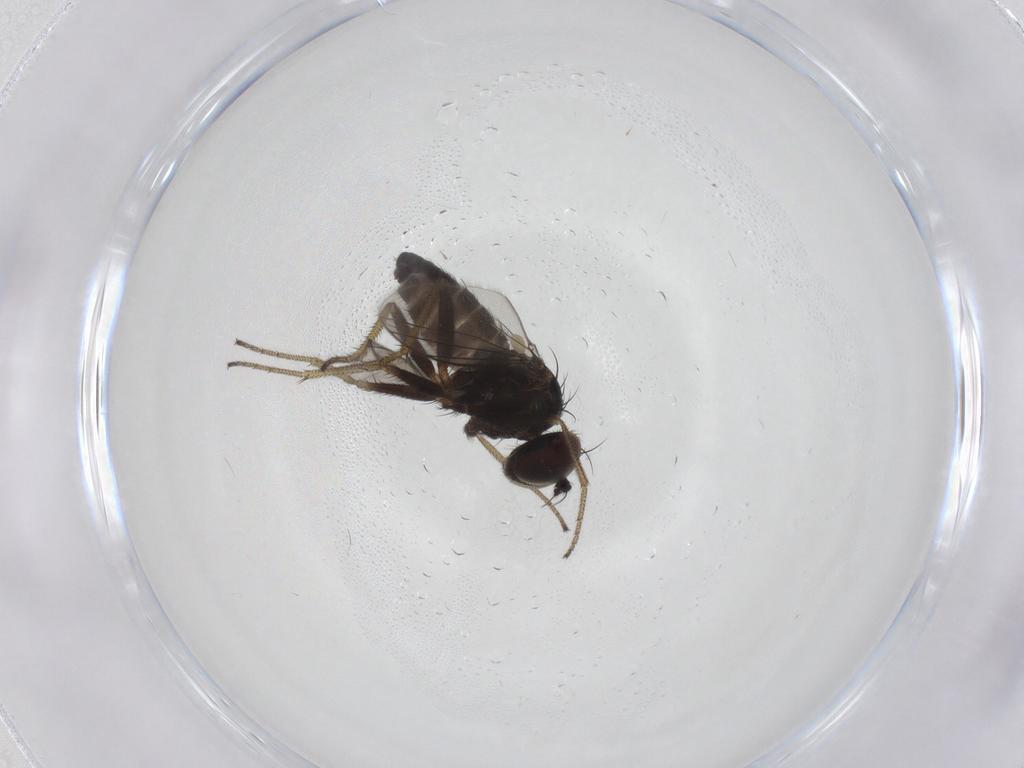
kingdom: Animalia
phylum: Arthropoda
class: Insecta
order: Diptera
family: Dolichopodidae
